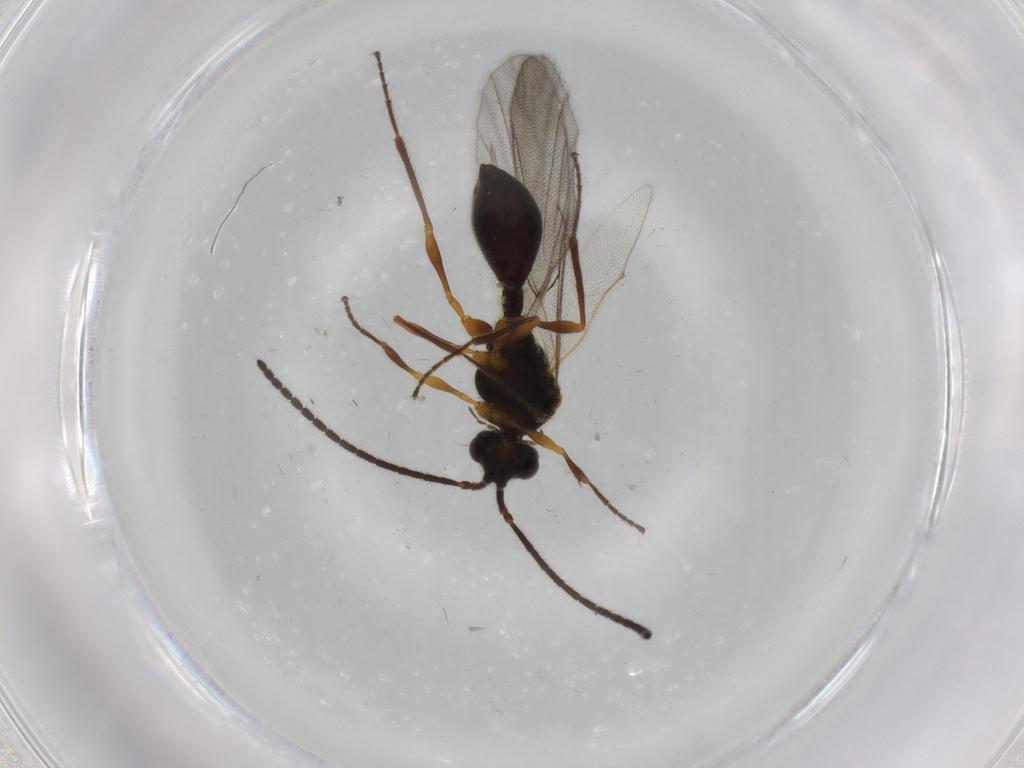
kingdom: Animalia
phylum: Arthropoda
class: Insecta
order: Hymenoptera
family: Diapriidae
